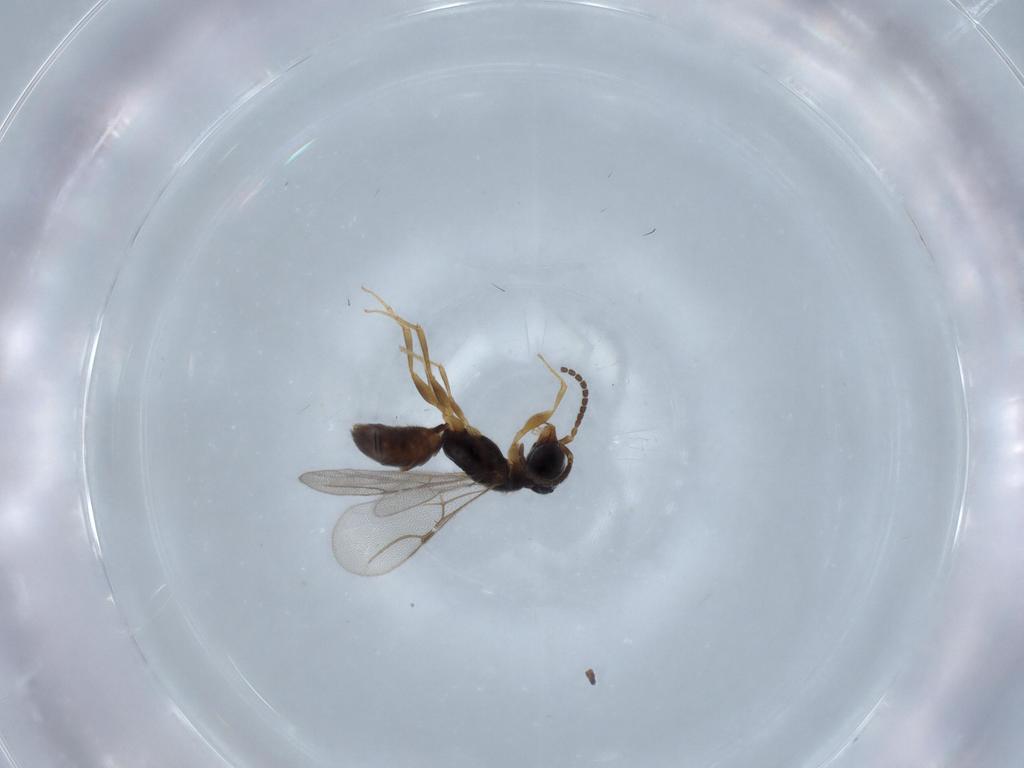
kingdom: Animalia
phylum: Arthropoda
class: Insecta
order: Hymenoptera
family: Bethylidae
